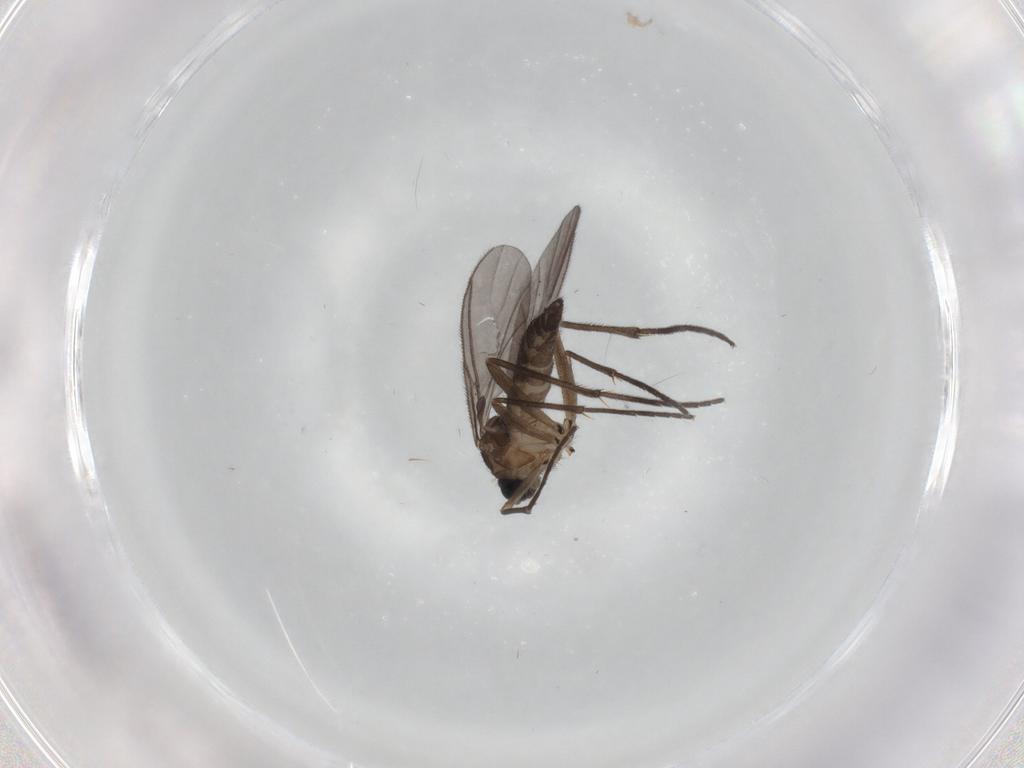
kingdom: Animalia
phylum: Arthropoda
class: Insecta
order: Diptera
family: Sciaridae
